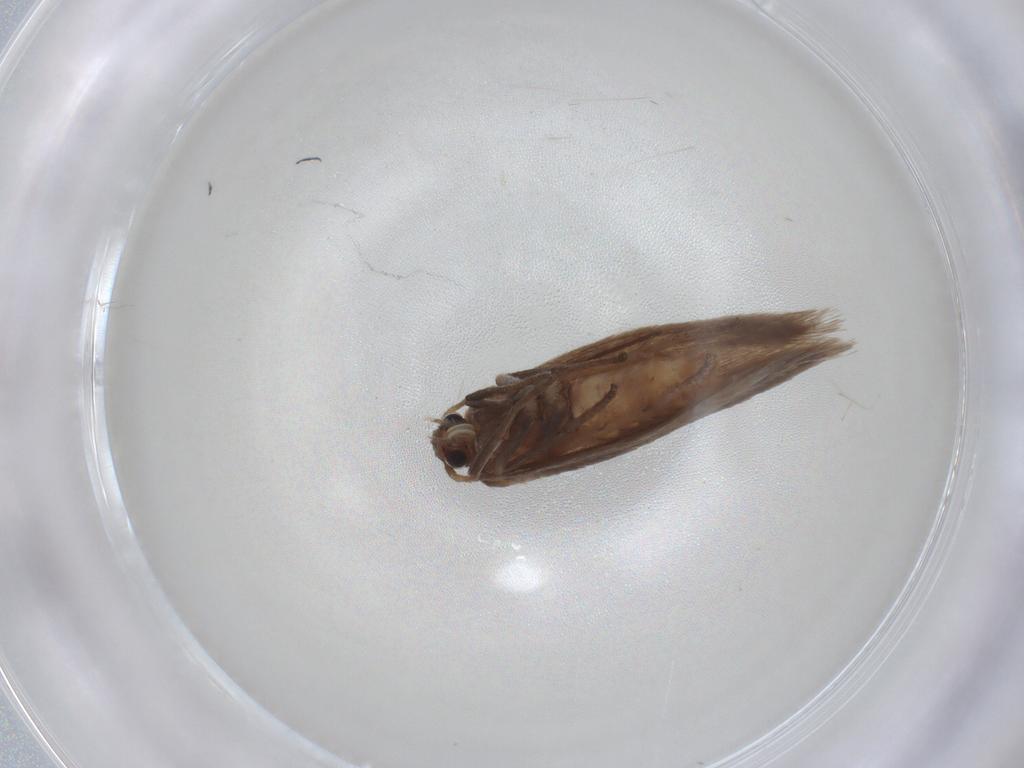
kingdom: Animalia
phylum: Arthropoda
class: Insecta
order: Lepidoptera
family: Limacodidae
